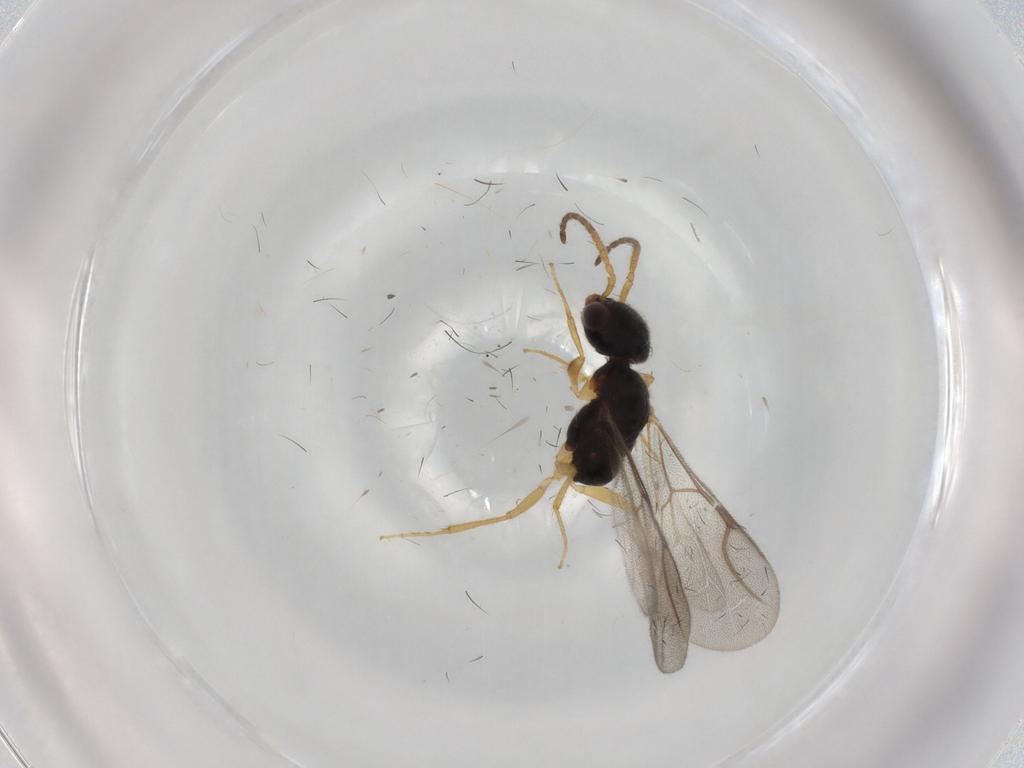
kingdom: Animalia
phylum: Arthropoda
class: Insecta
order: Hymenoptera
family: Bethylidae
